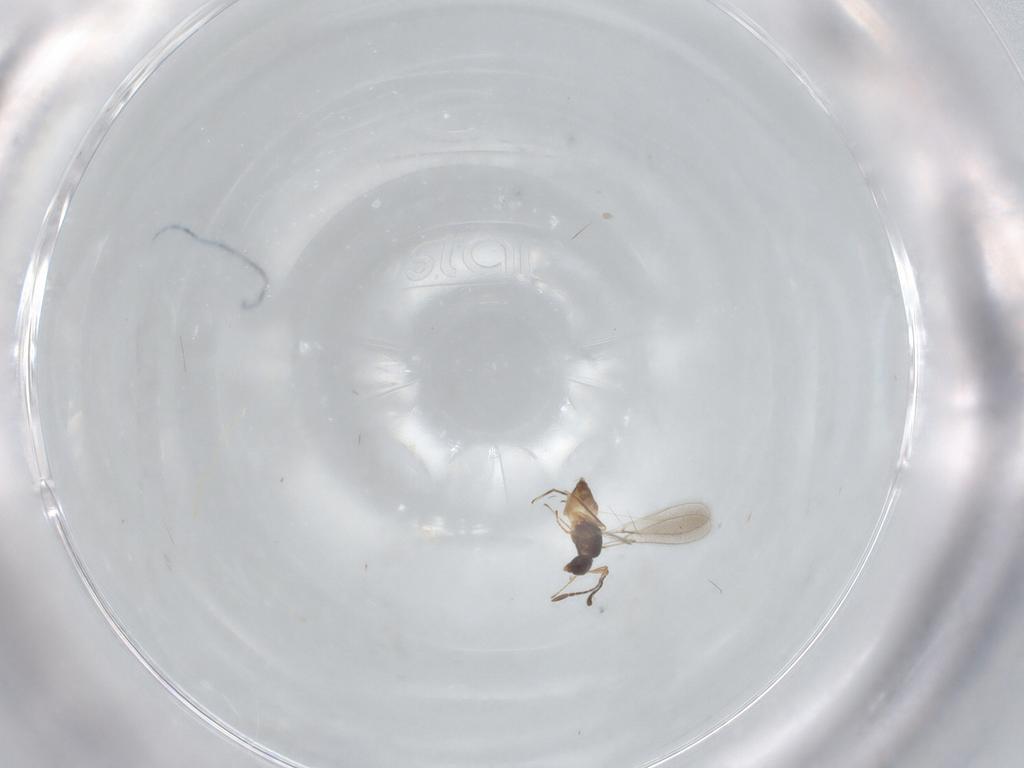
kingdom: Animalia
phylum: Arthropoda
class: Insecta
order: Hymenoptera
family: Mymaridae
